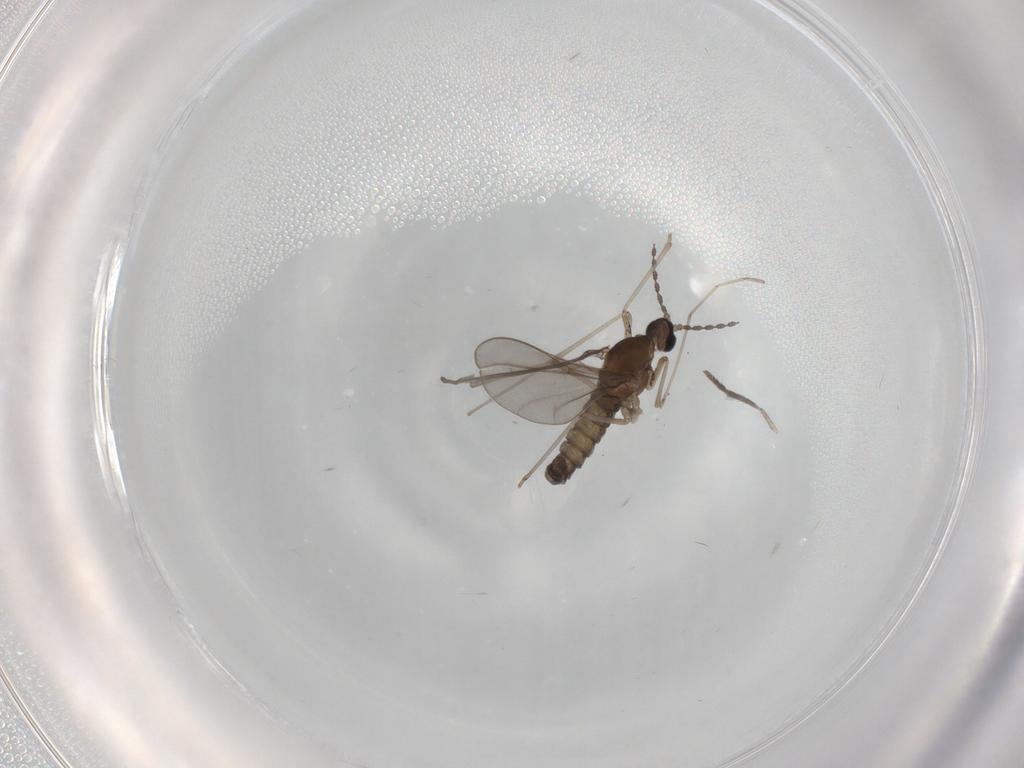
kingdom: Animalia
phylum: Arthropoda
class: Insecta
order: Diptera
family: Cecidomyiidae
